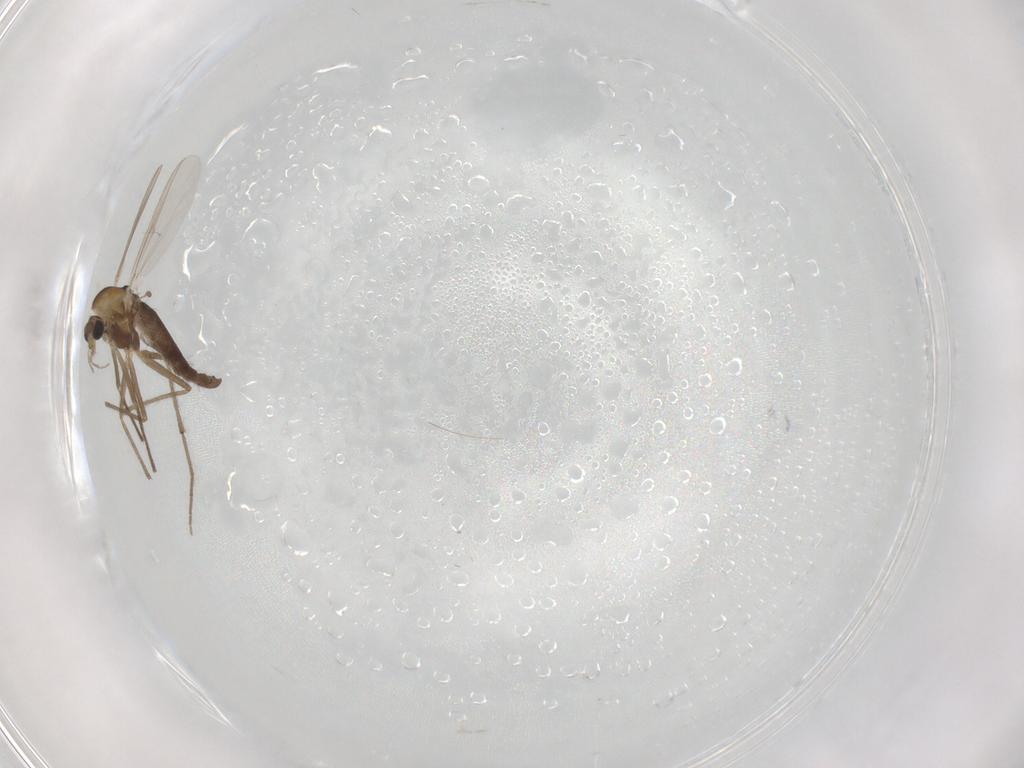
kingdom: Animalia
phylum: Arthropoda
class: Insecta
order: Diptera
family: Chironomidae
